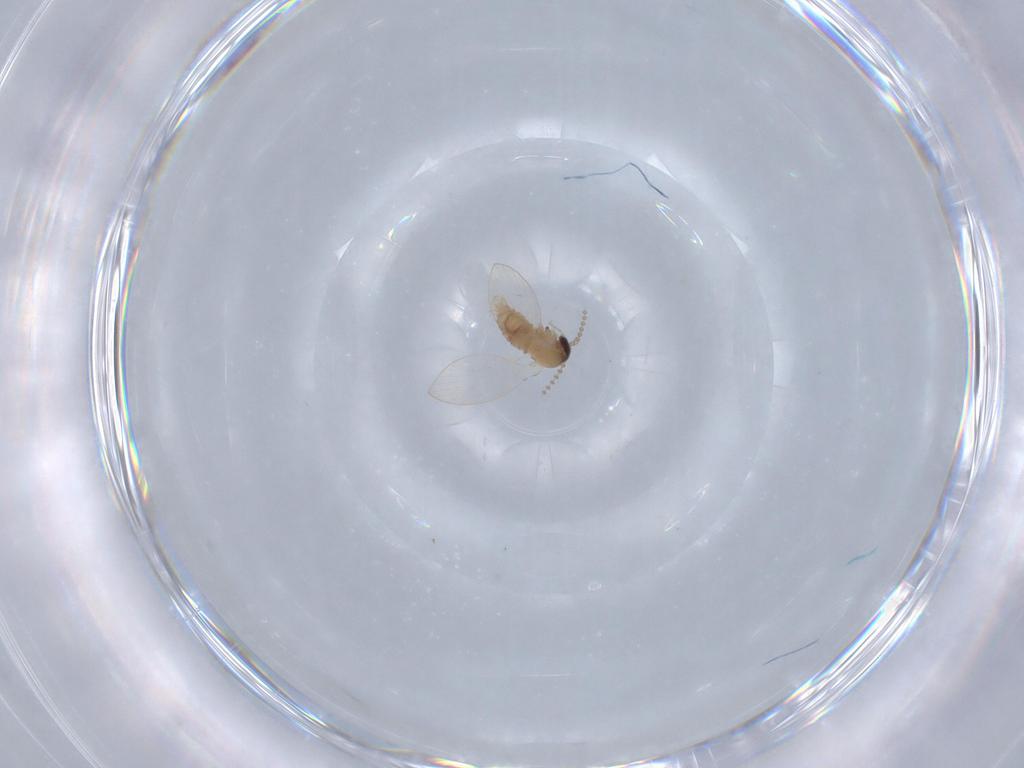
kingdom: Animalia
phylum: Arthropoda
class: Insecta
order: Diptera
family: Psychodidae
